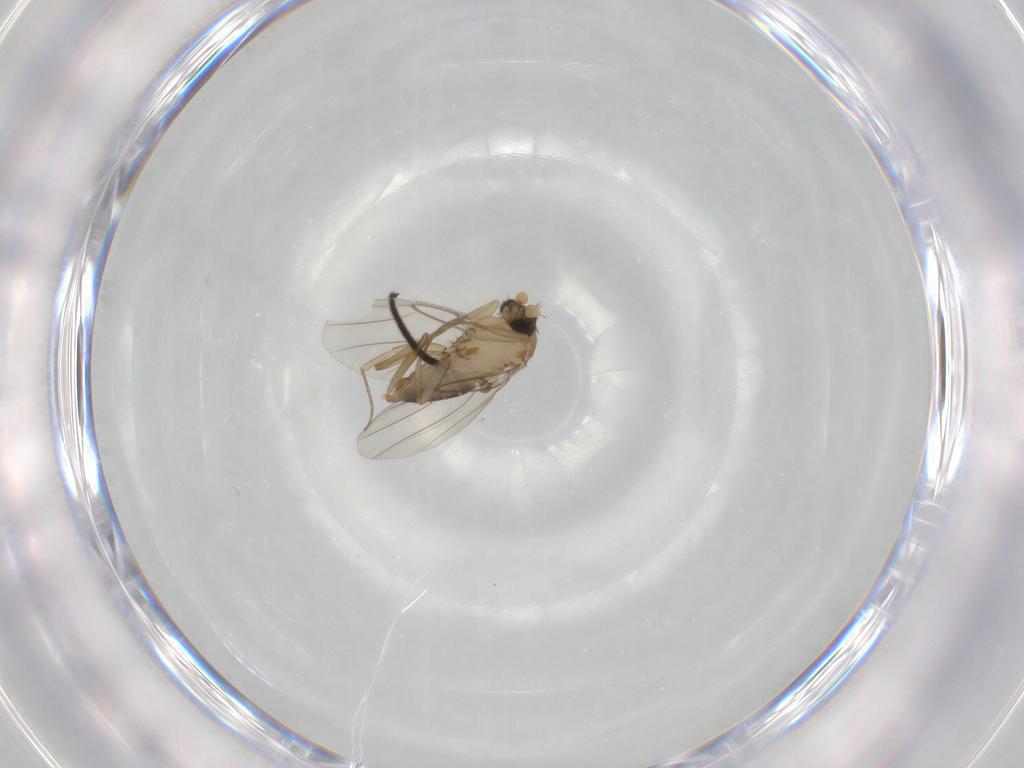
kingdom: Animalia
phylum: Arthropoda
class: Insecta
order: Diptera
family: Phoridae
